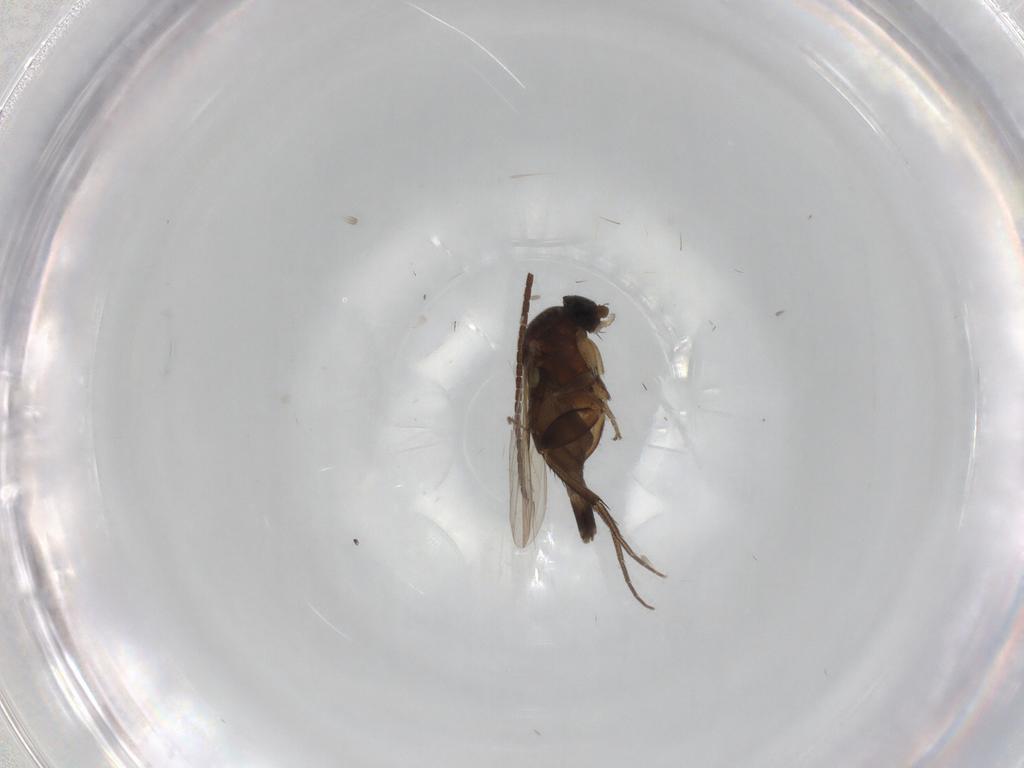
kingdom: Animalia
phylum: Arthropoda
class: Insecta
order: Diptera
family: Phoridae
